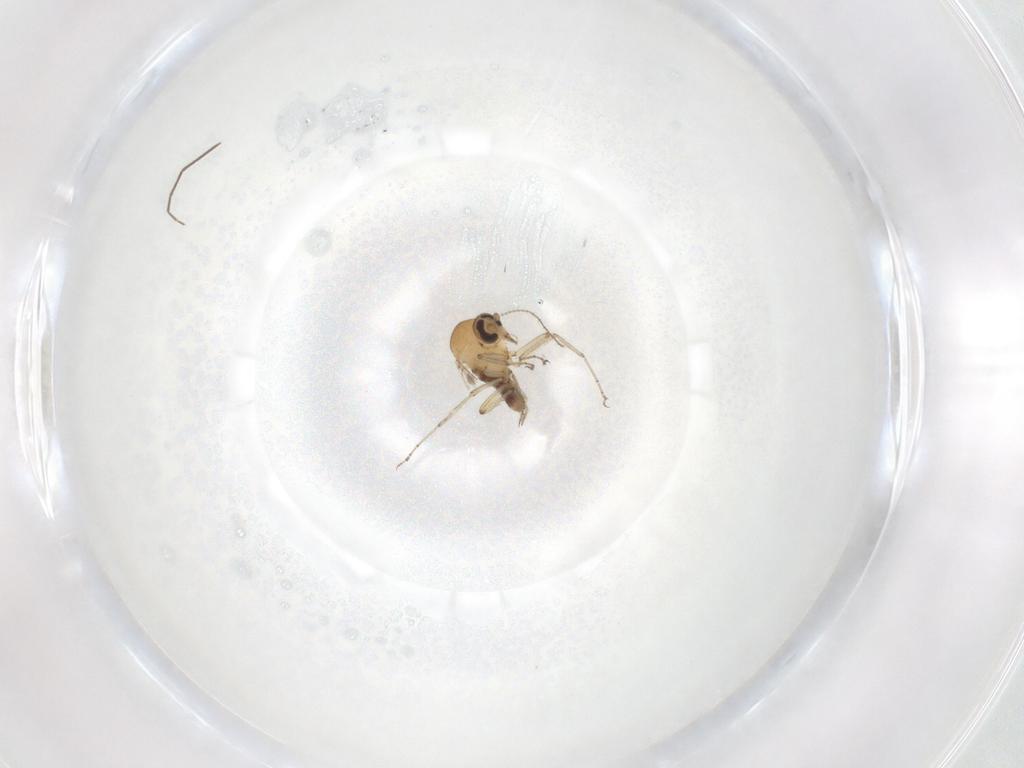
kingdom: Animalia
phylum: Arthropoda
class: Insecta
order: Diptera
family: Ceratopogonidae
